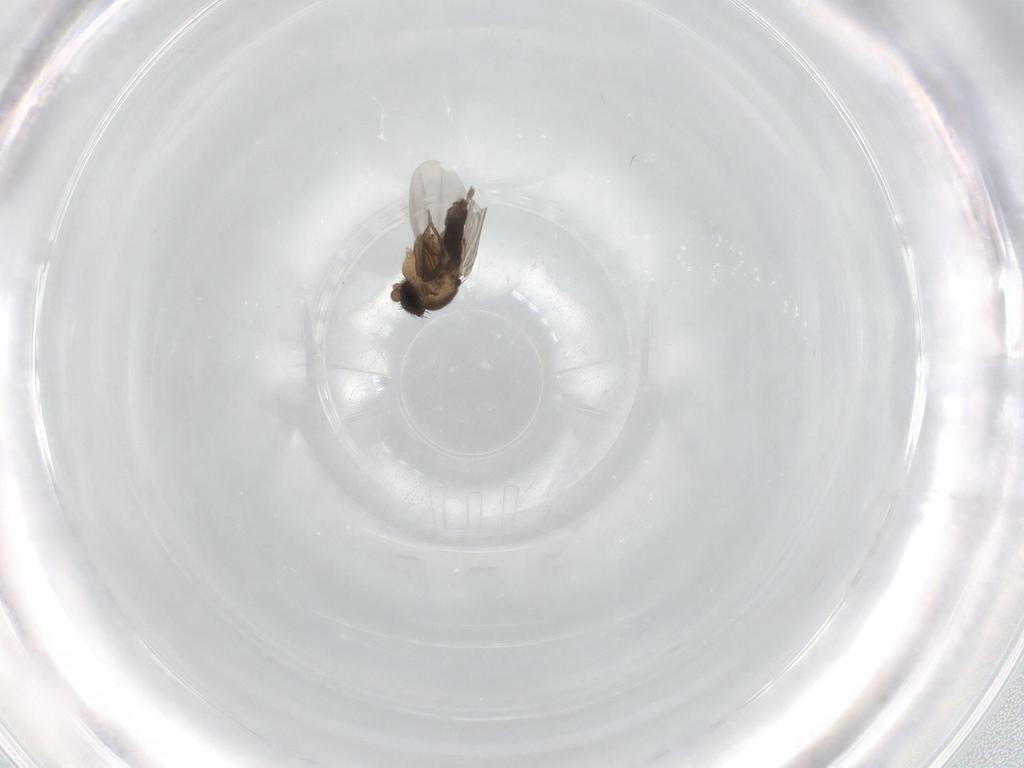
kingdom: Animalia
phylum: Arthropoda
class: Insecta
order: Diptera
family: Phoridae
